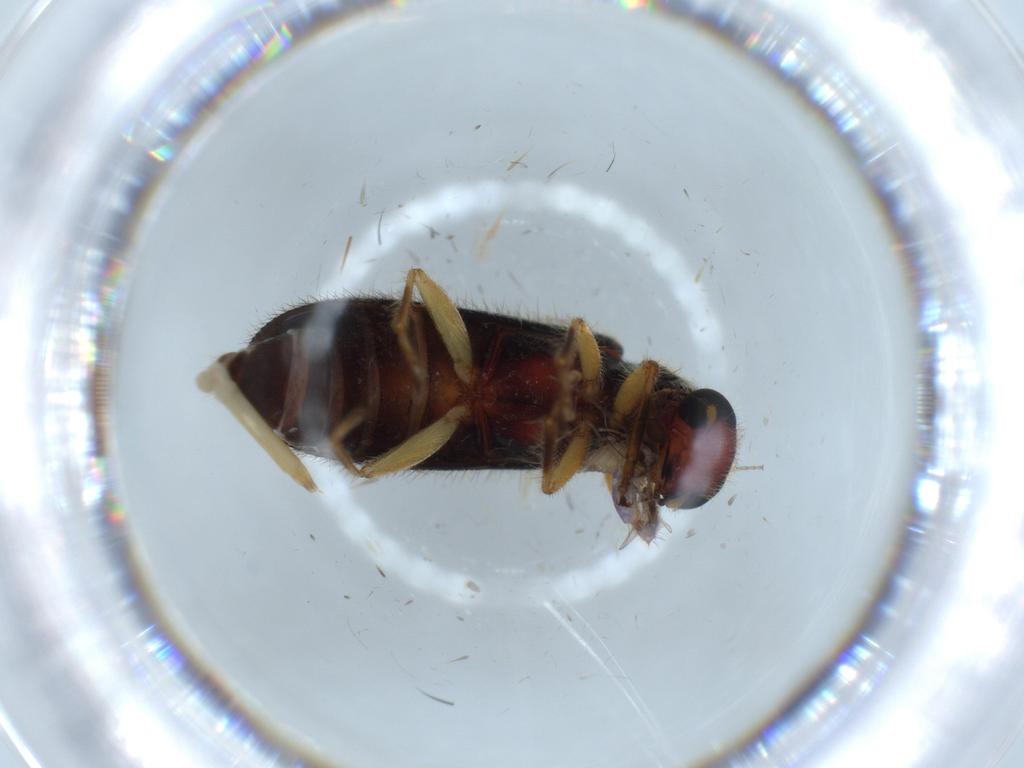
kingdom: Animalia
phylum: Arthropoda
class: Insecta
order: Coleoptera
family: Cleridae
